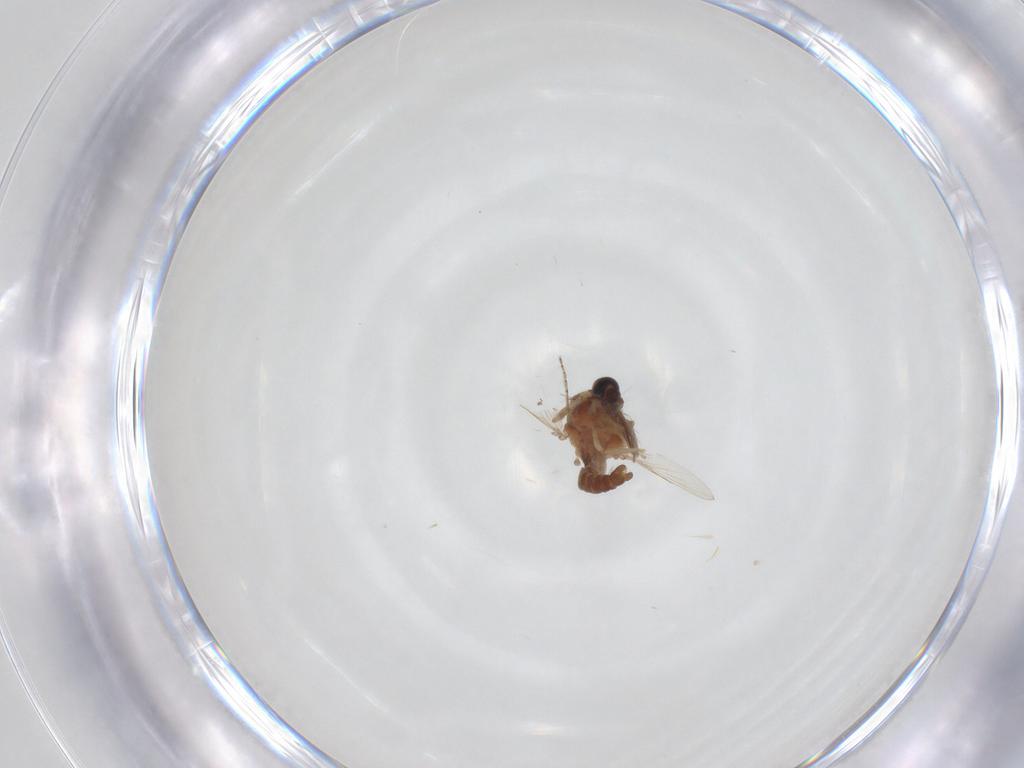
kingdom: Animalia
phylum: Arthropoda
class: Insecta
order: Diptera
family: Ceratopogonidae
